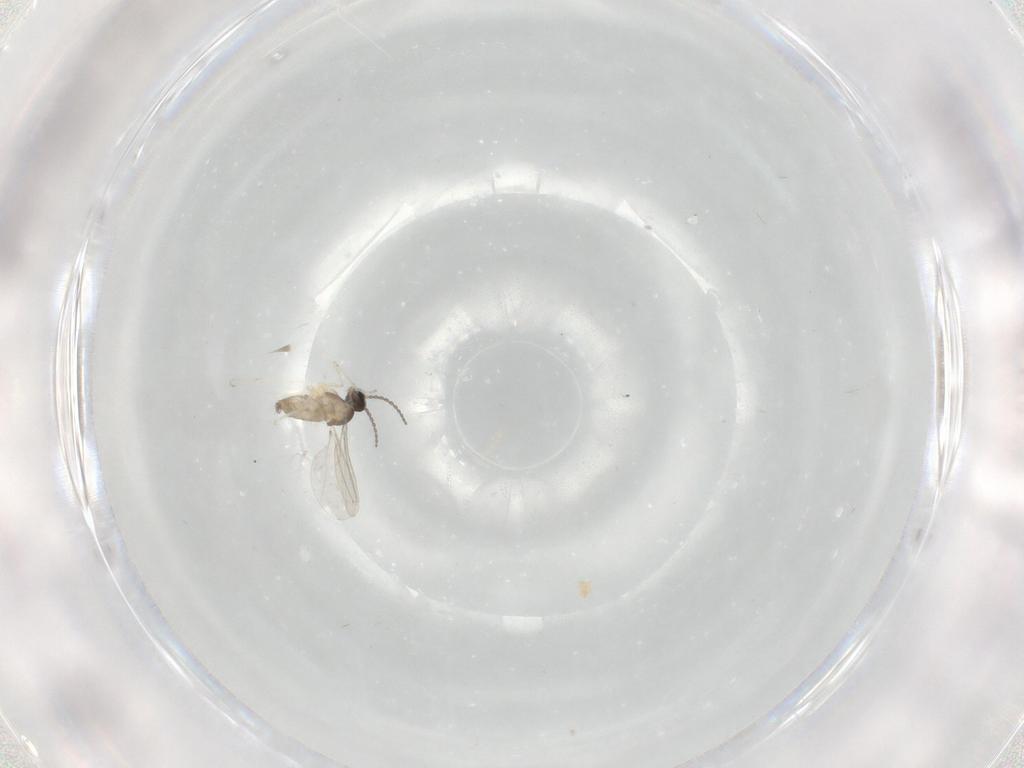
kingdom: Animalia
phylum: Arthropoda
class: Insecta
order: Diptera
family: Cecidomyiidae
